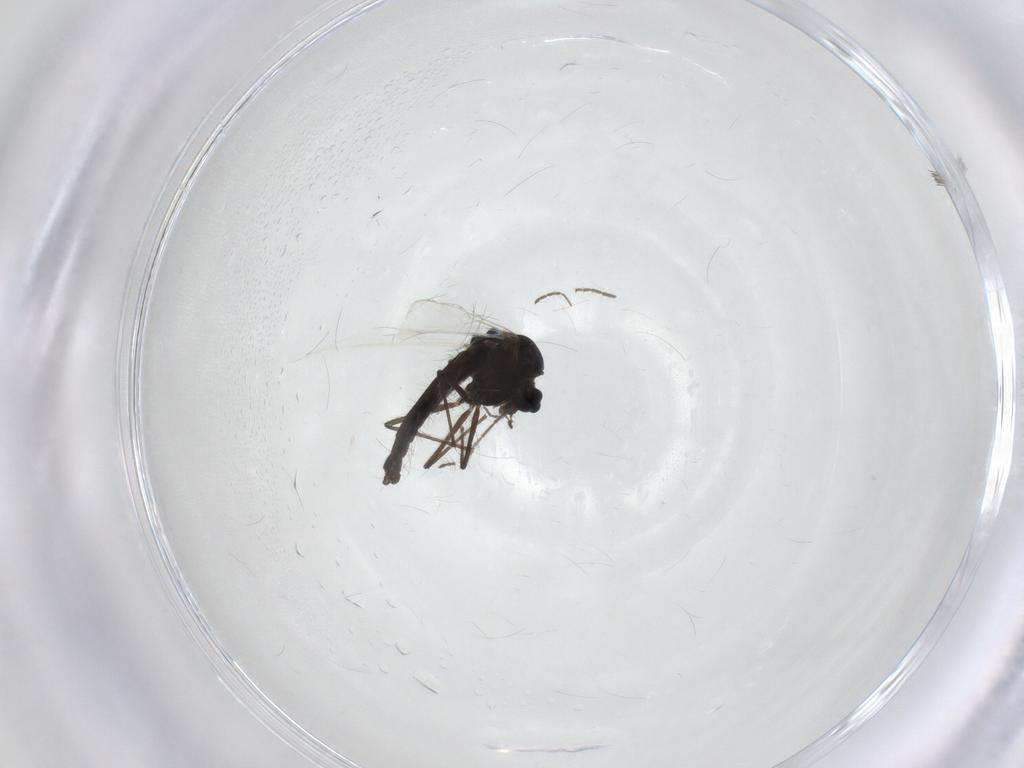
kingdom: Animalia
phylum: Arthropoda
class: Insecta
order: Diptera
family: Chironomidae
